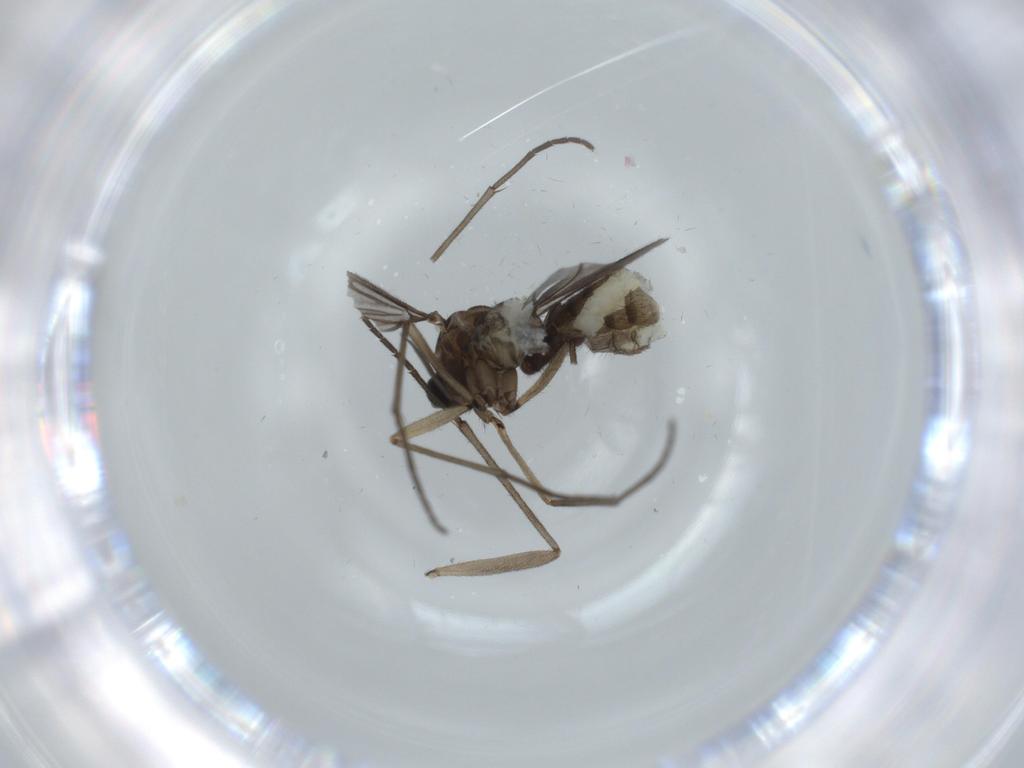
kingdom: Animalia
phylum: Arthropoda
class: Insecta
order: Diptera
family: Sciaridae
